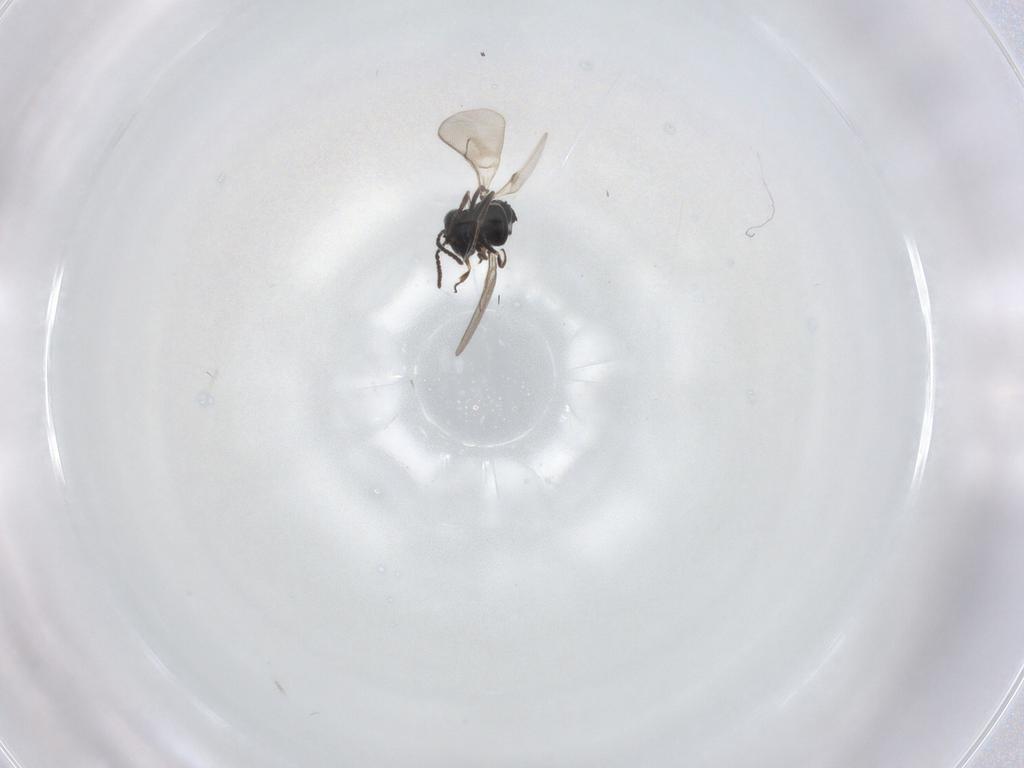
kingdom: Animalia
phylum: Arthropoda
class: Insecta
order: Hymenoptera
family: Scelionidae
